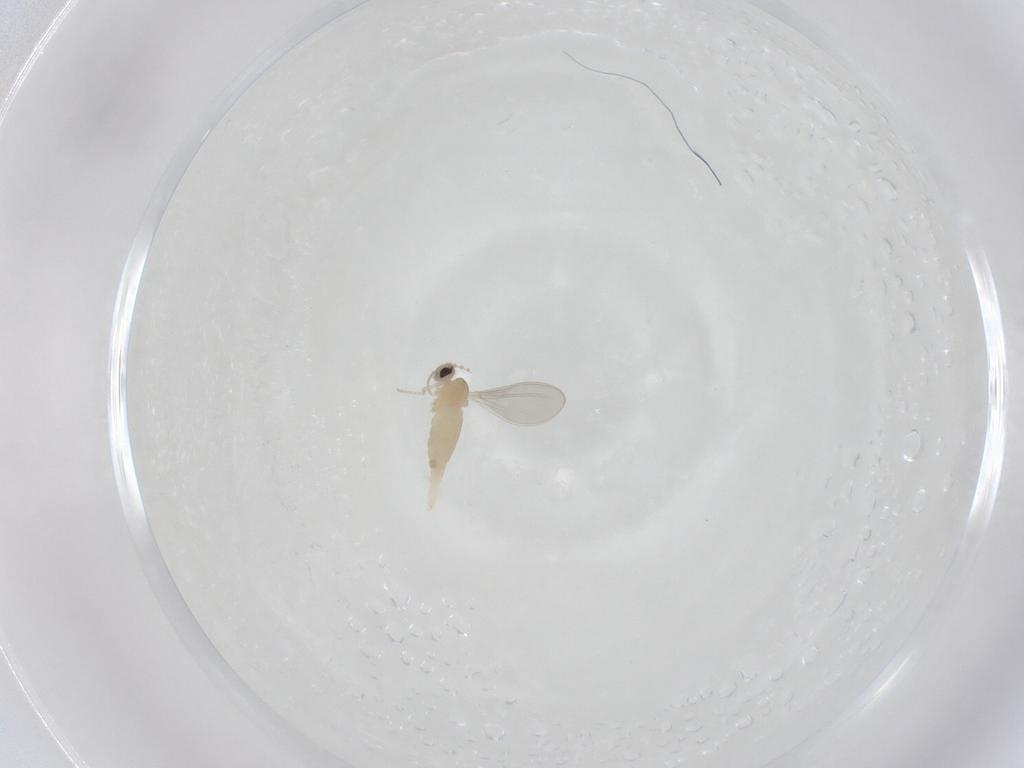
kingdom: Animalia
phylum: Arthropoda
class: Insecta
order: Diptera
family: Cecidomyiidae
